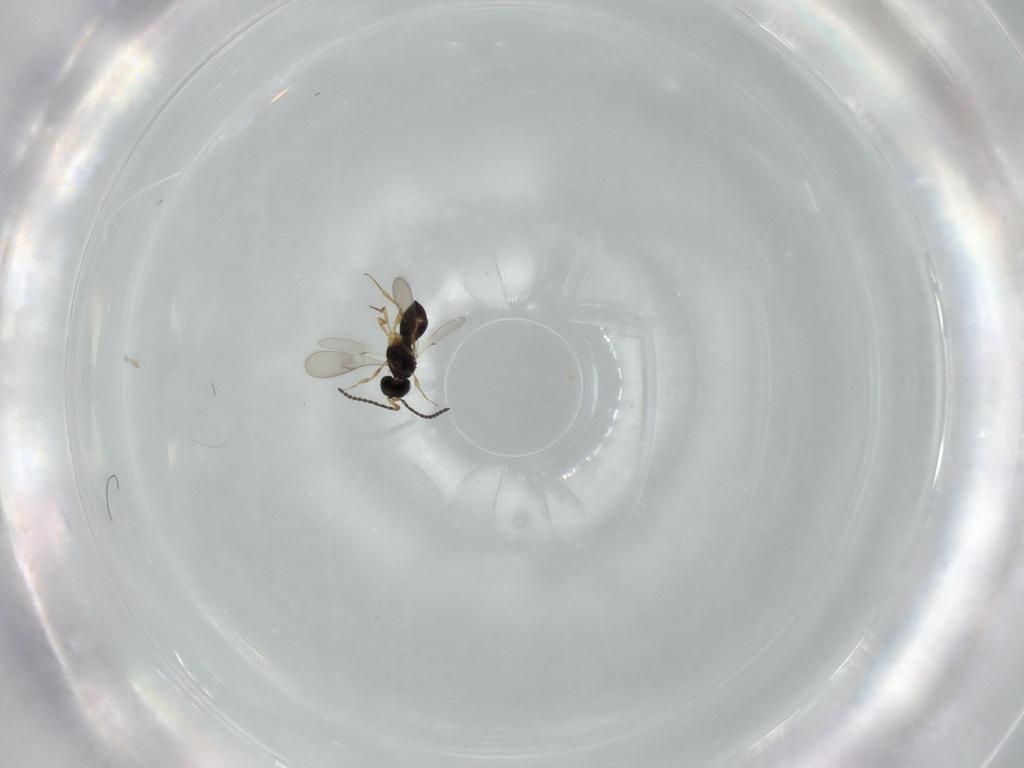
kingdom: Animalia
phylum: Arthropoda
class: Insecta
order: Hymenoptera
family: Scelionidae
